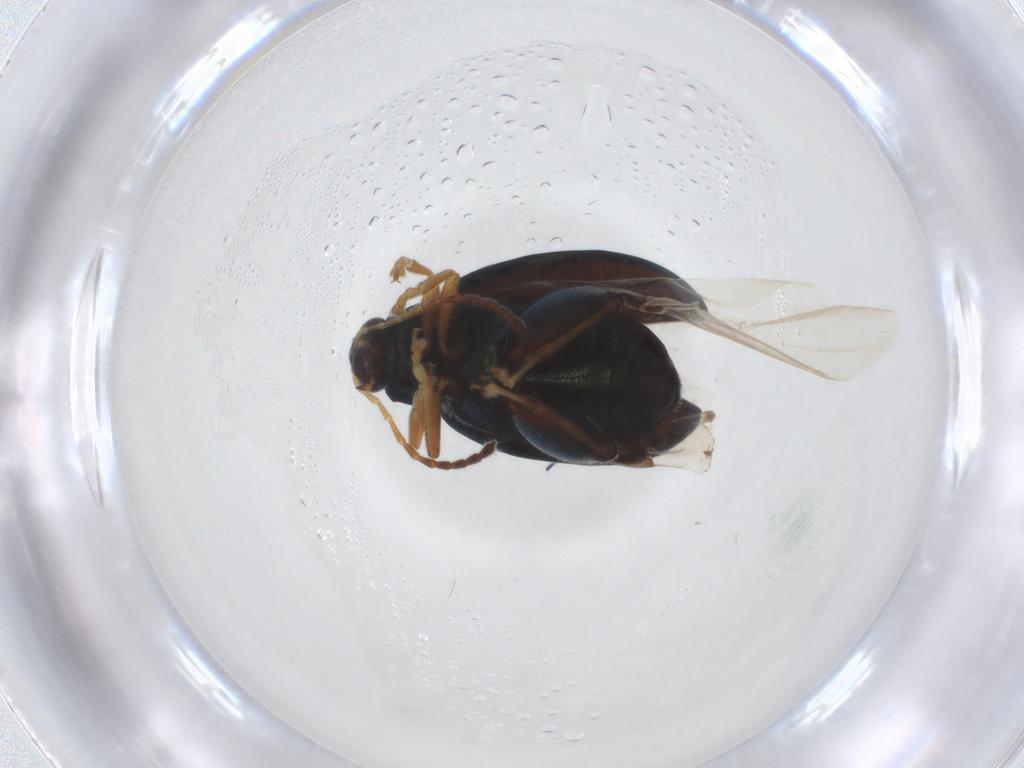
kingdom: Animalia
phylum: Arthropoda
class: Insecta
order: Coleoptera
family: Chrysomelidae
